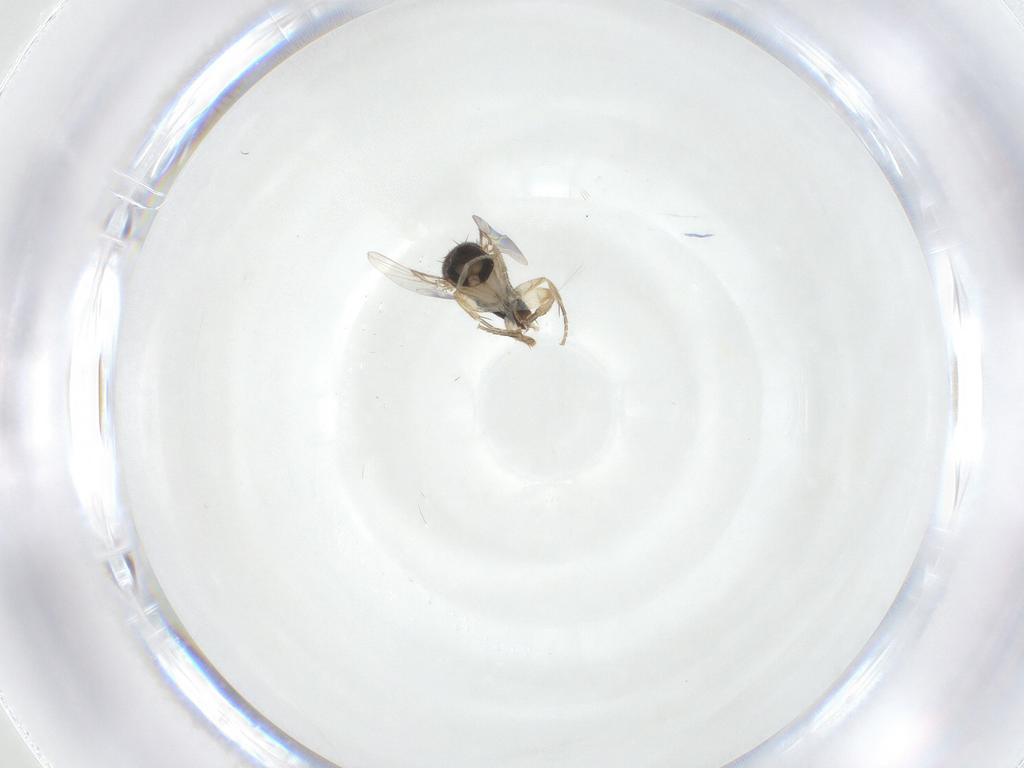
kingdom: Animalia
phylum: Arthropoda
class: Insecta
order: Diptera
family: Cecidomyiidae
